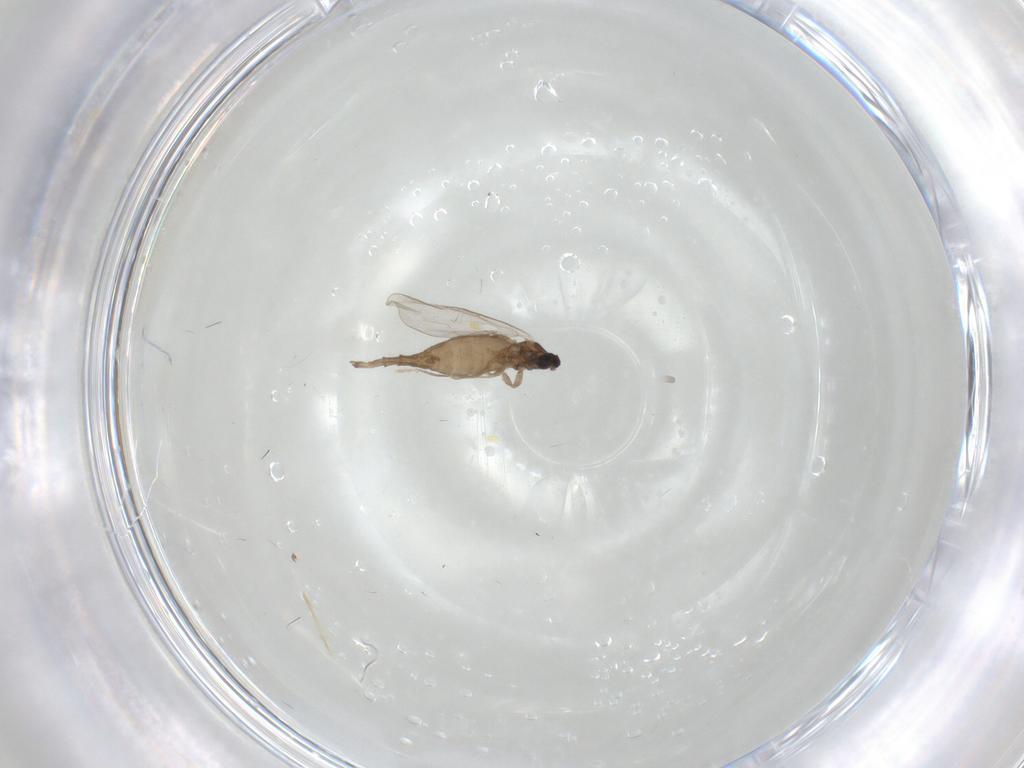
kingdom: Animalia
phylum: Arthropoda
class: Insecta
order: Diptera
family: Cecidomyiidae
